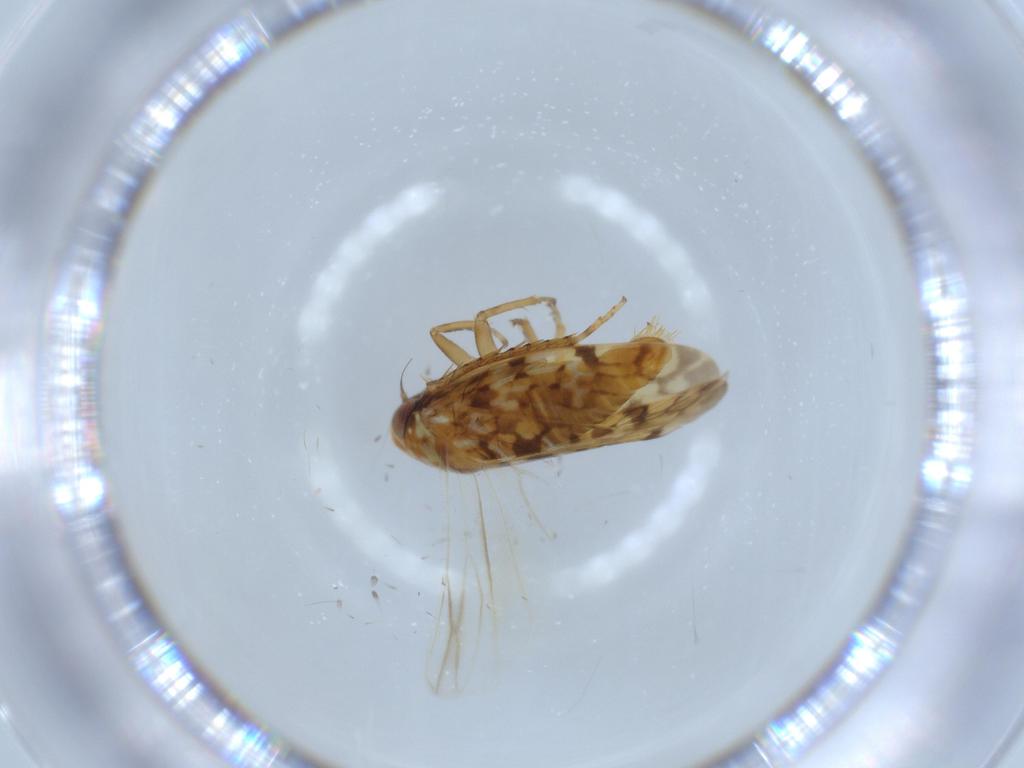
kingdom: Animalia
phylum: Arthropoda
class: Insecta
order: Hemiptera
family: Cicadellidae
